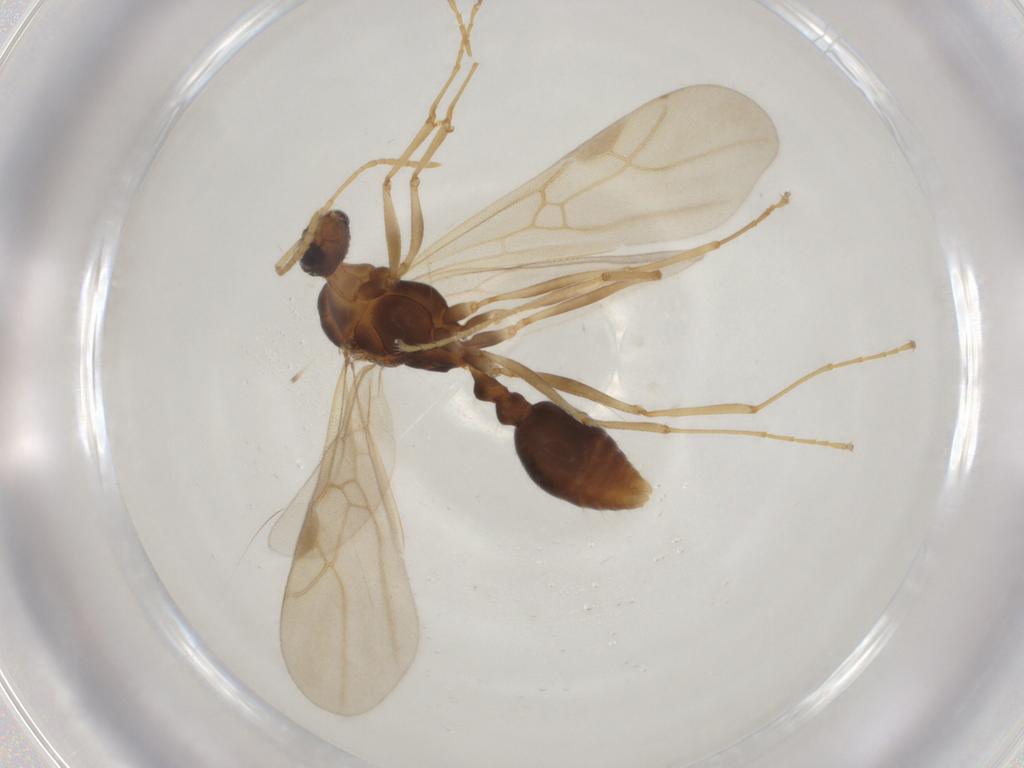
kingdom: Animalia
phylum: Arthropoda
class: Insecta
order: Hymenoptera
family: Formicidae
